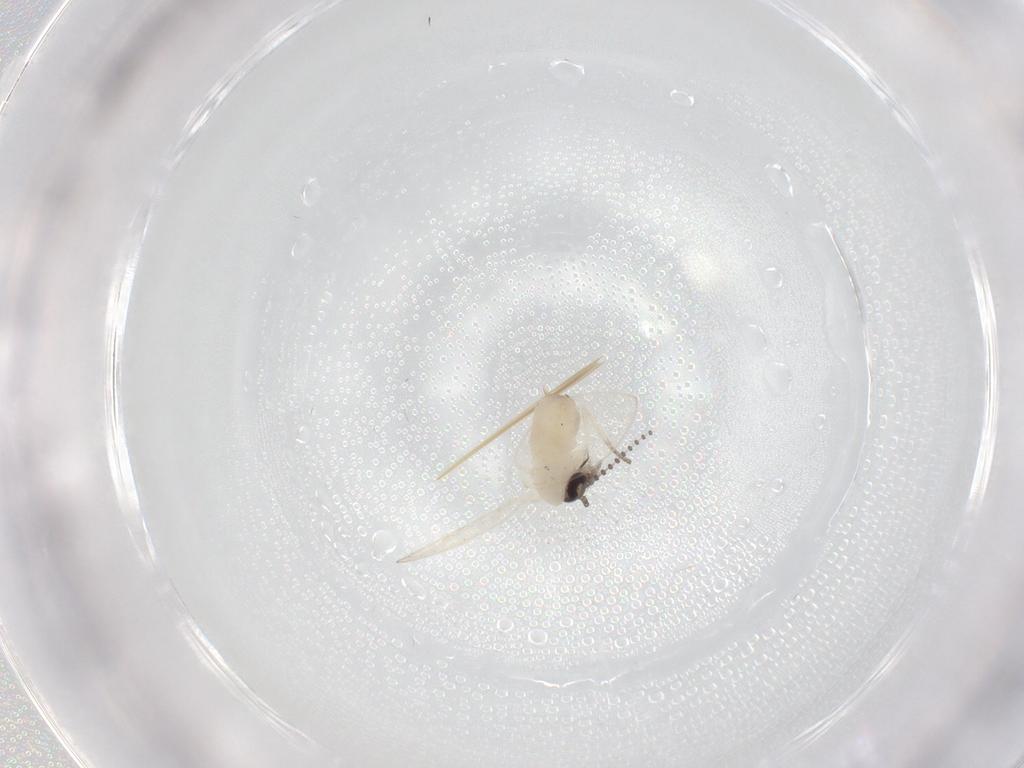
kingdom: Animalia
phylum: Arthropoda
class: Insecta
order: Diptera
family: Psychodidae
